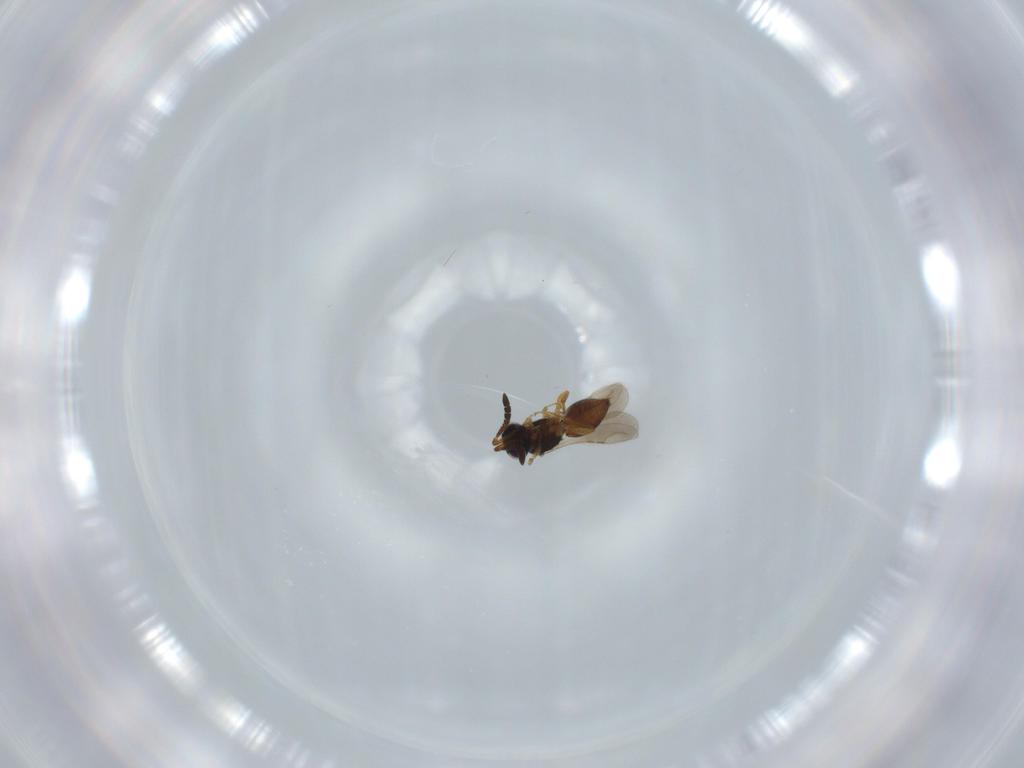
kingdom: Animalia
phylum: Arthropoda
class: Insecta
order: Hymenoptera
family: Ceraphronidae
